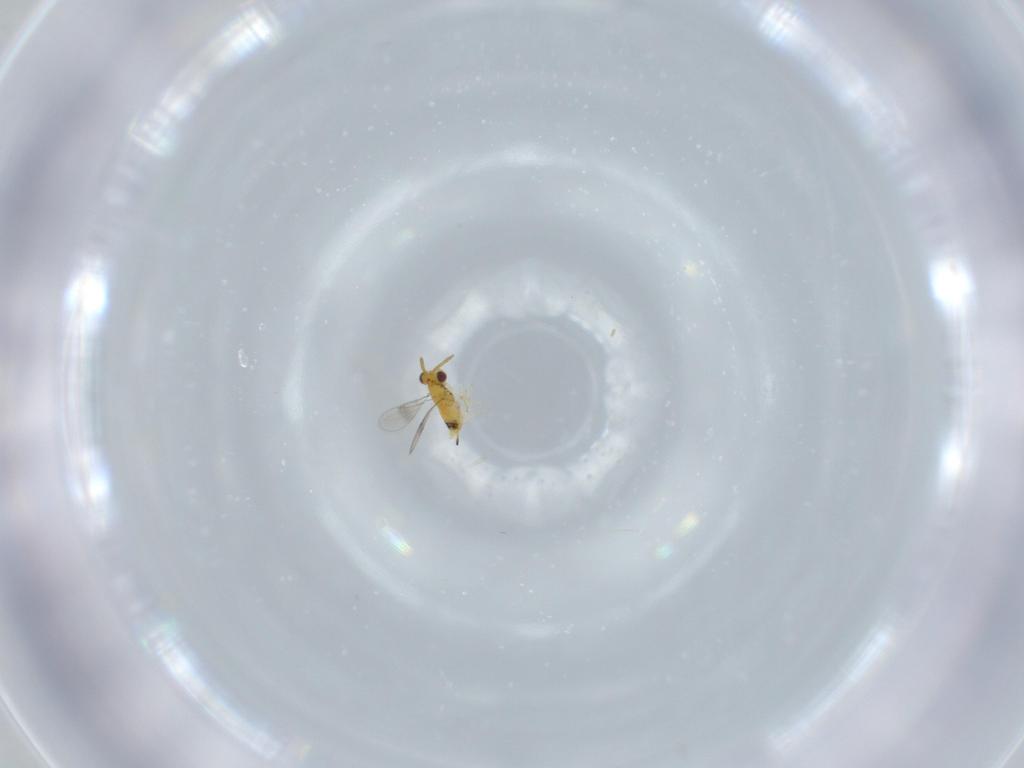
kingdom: Animalia
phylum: Arthropoda
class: Insecta
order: Hymenoptera
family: Aphelinidae
